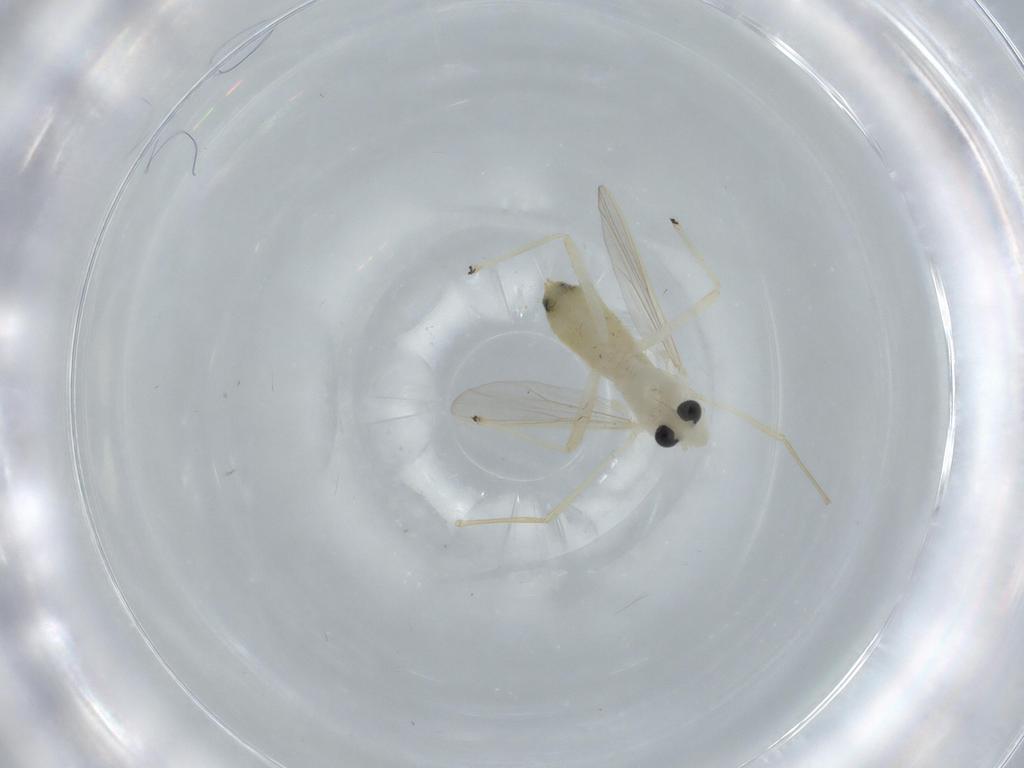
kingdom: Animalia
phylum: Arthropoda
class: Insecta
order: Diptera
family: Chironomidae
